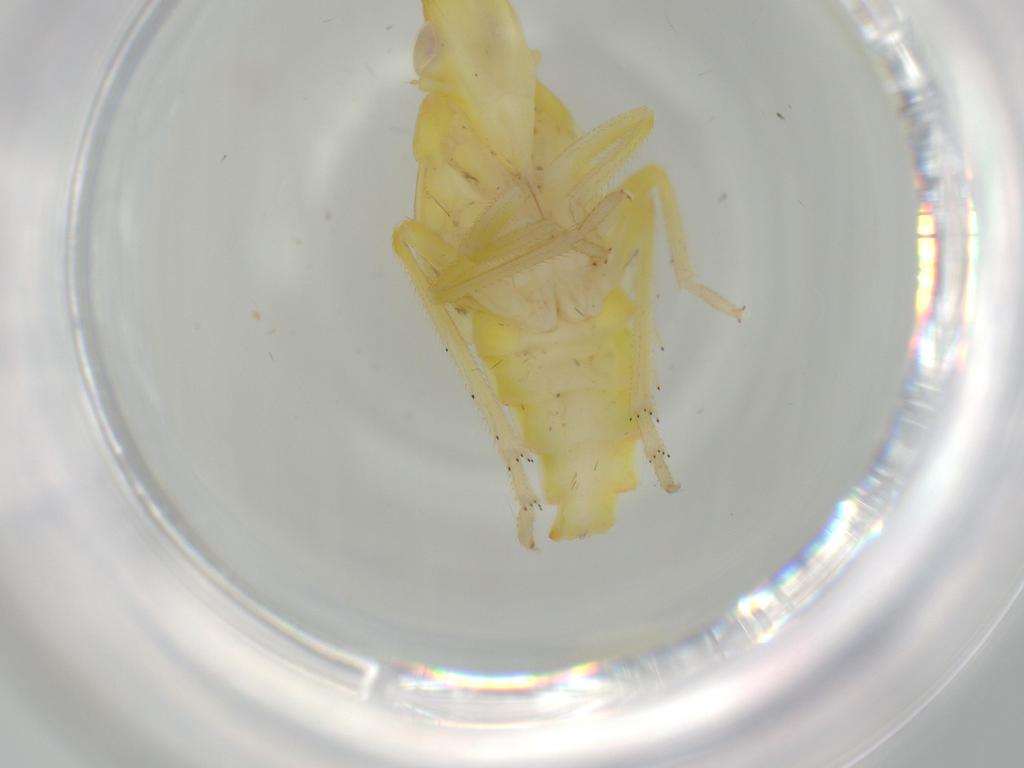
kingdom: Animalia
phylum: Arthropoda
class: Insecta
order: Hemiptera
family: Tropiduchidae
